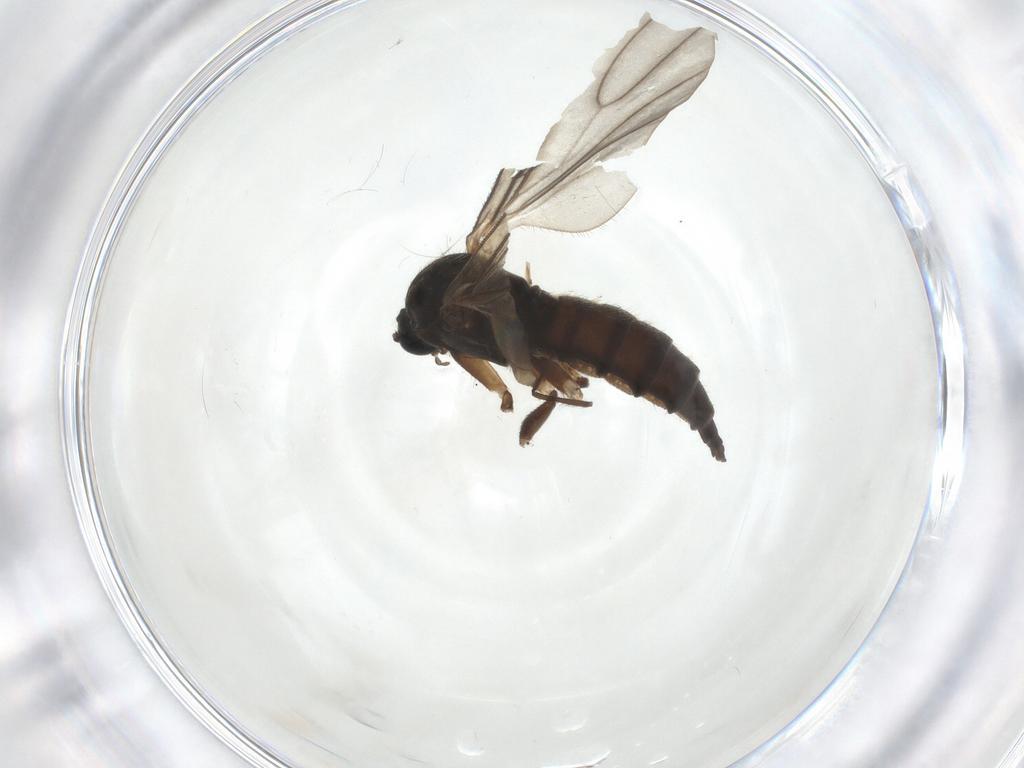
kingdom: Animalia
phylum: Arthropoda
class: Insecta
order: Diptera
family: Sciaridae
